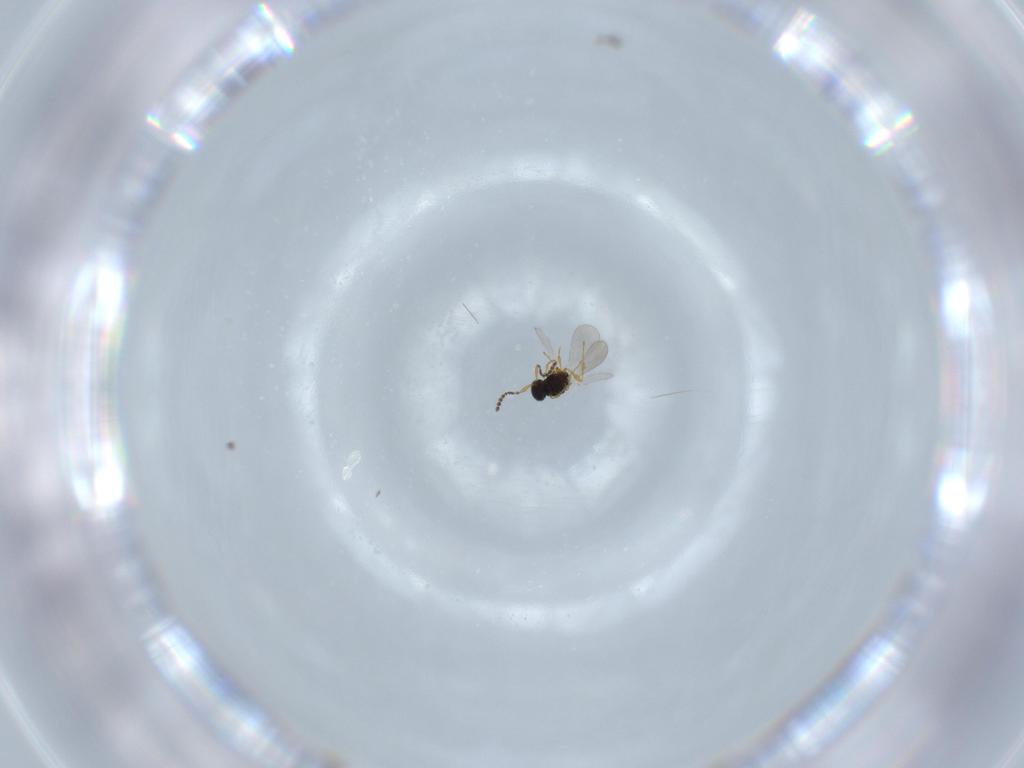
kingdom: Animalia
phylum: Arthropoda
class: Insecta
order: Hymenoptera
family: Platygastridae
